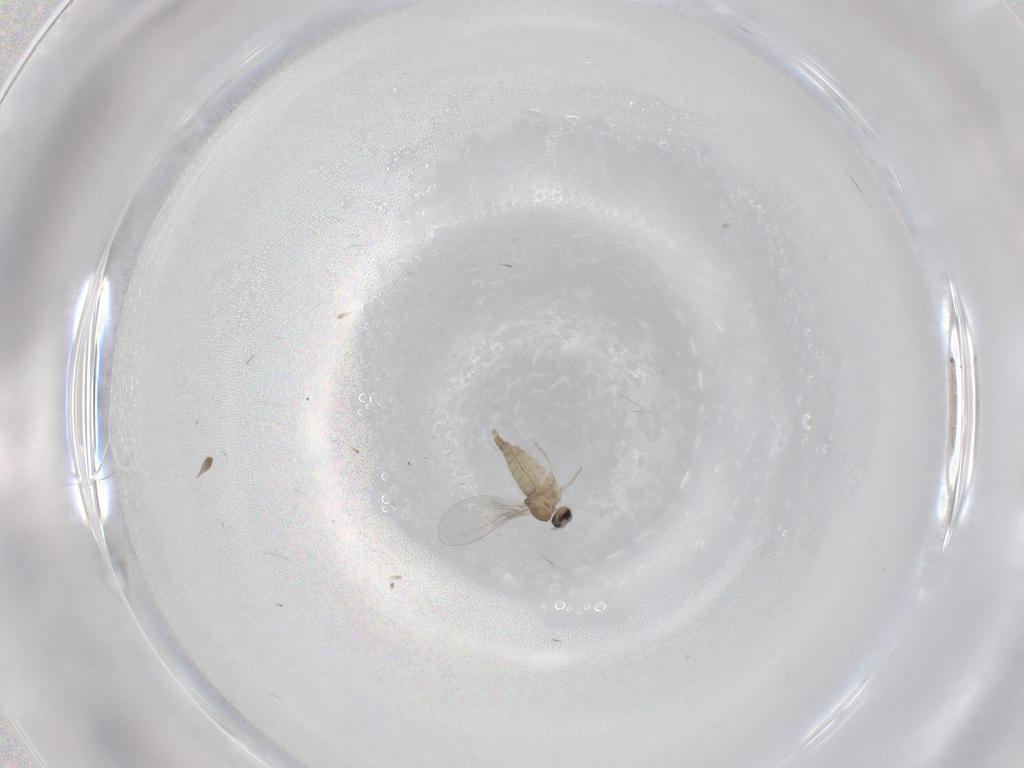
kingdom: Animalia
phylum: Arthropoda
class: Insecta
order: Diptera
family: Cecidomyiidae
